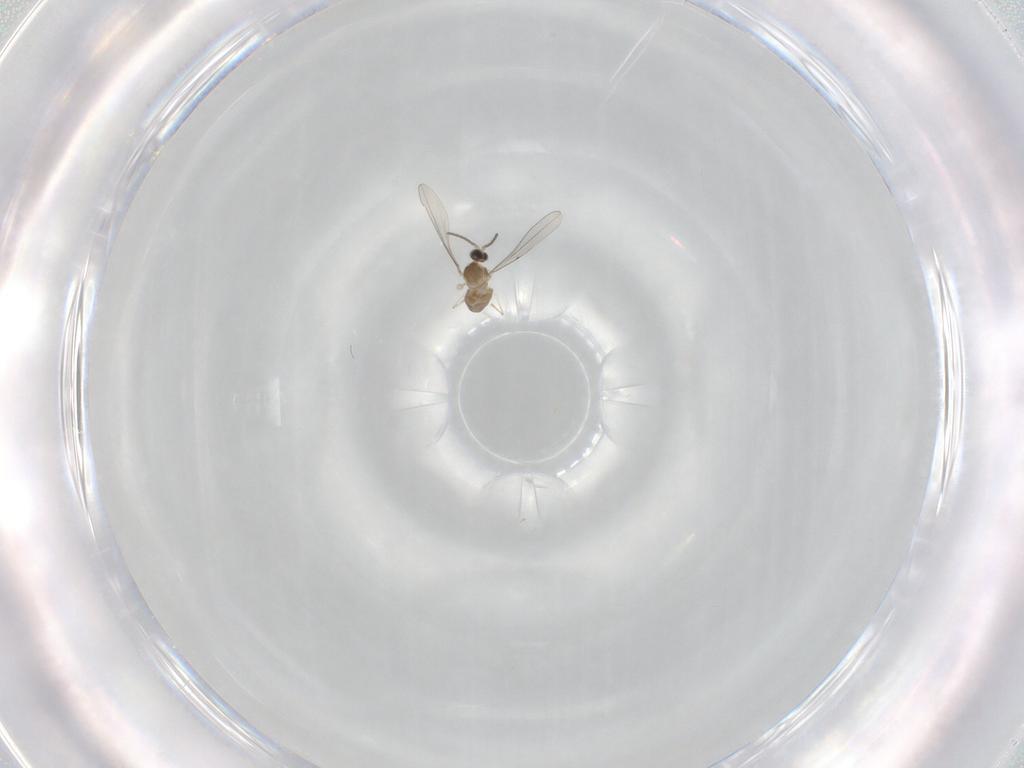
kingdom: Animalia
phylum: Arthropoda
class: Insecta
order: Diptera
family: Cecidomyiidae
